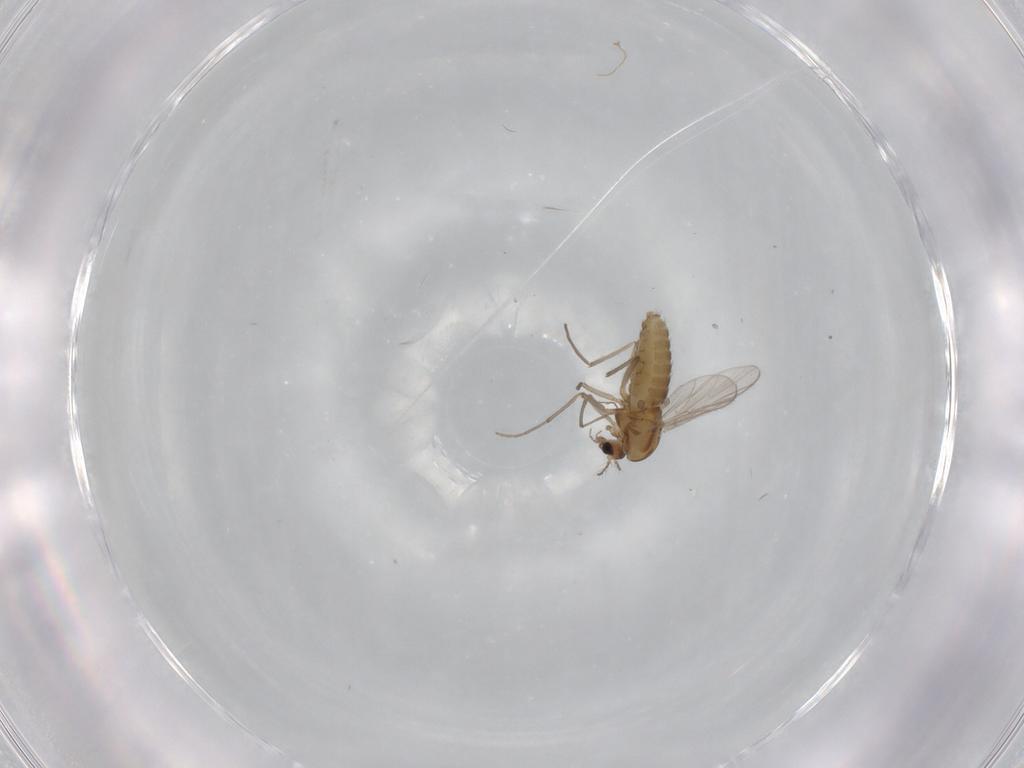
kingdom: Animalia
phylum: Arthropoda
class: Insecta
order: Diptera
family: Chironomidae
